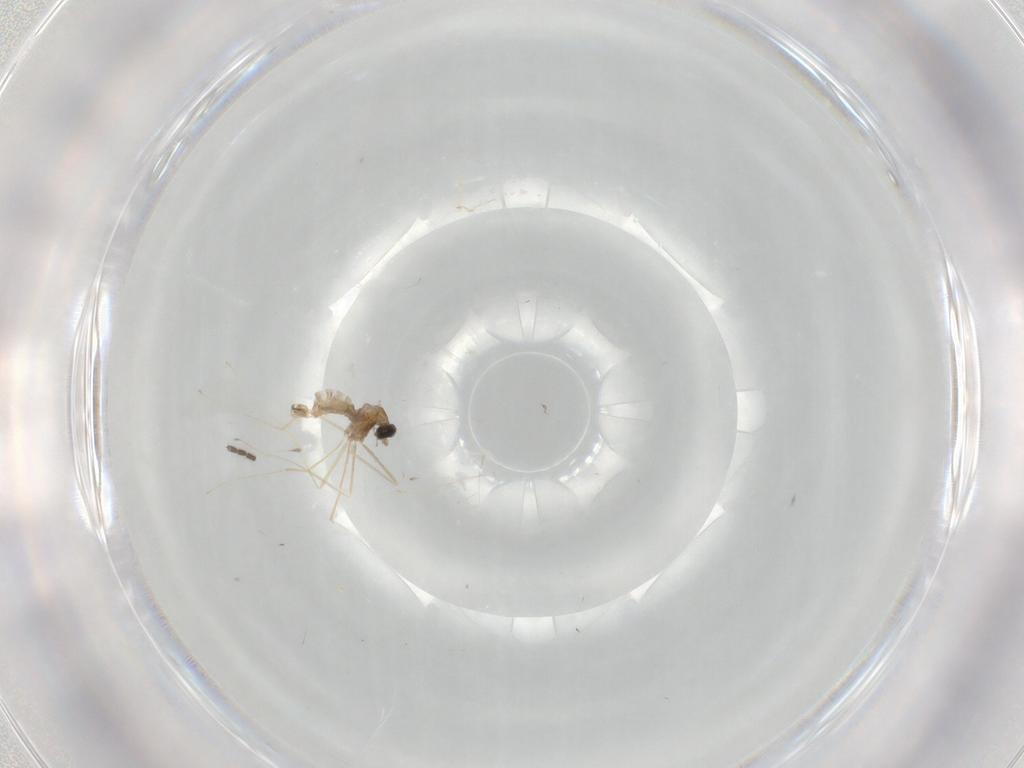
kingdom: Animalia
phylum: Arthropoda
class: Insecta
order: Diptera
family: Cecidomyiidae
